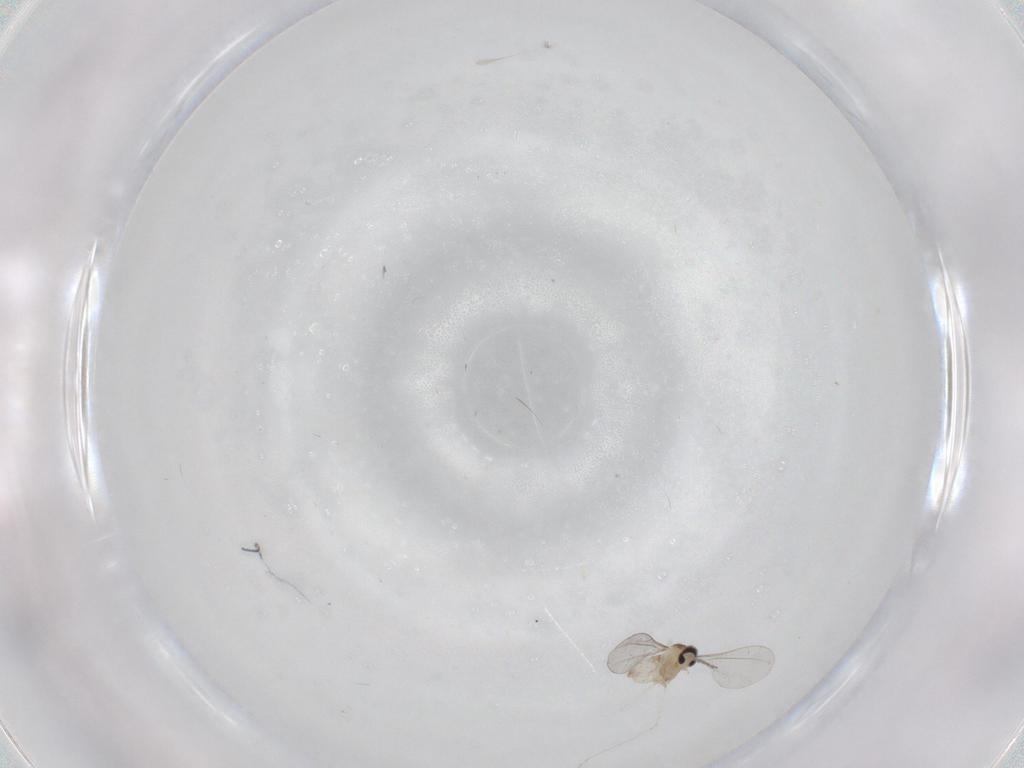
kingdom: Animalia
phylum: Arthropoda
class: Insecta
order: Diptera
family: Cecidomyiidae
